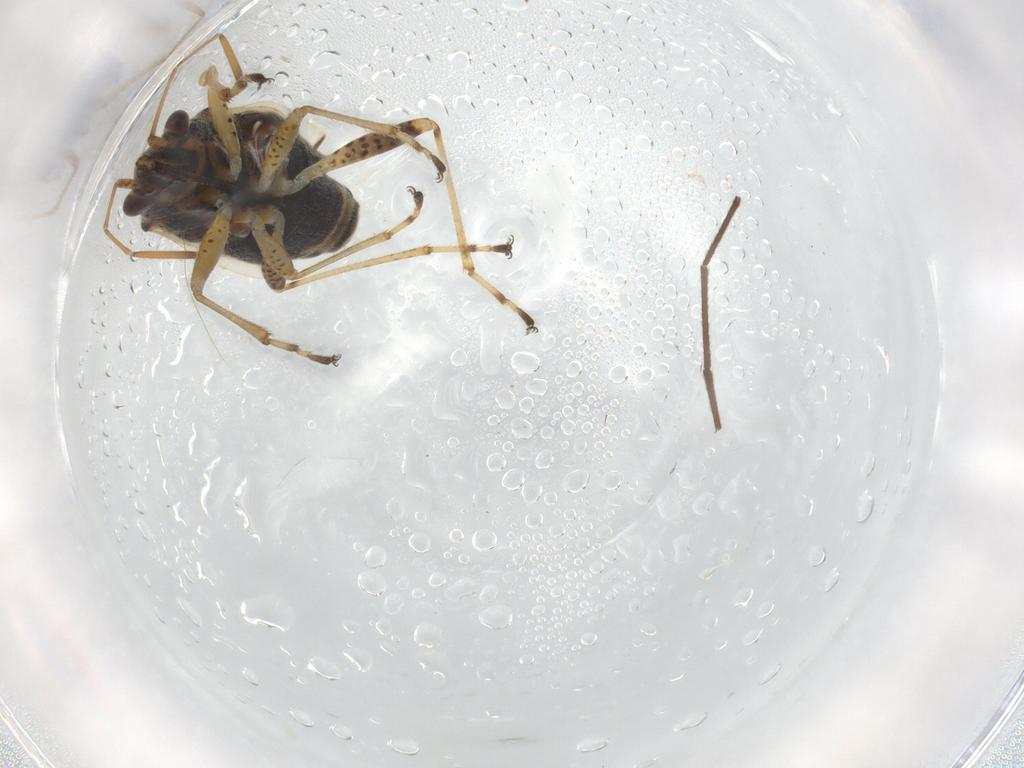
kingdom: Animalia
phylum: Arthropoda
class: Insecta
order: Hemiptera
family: Lygaeidae
